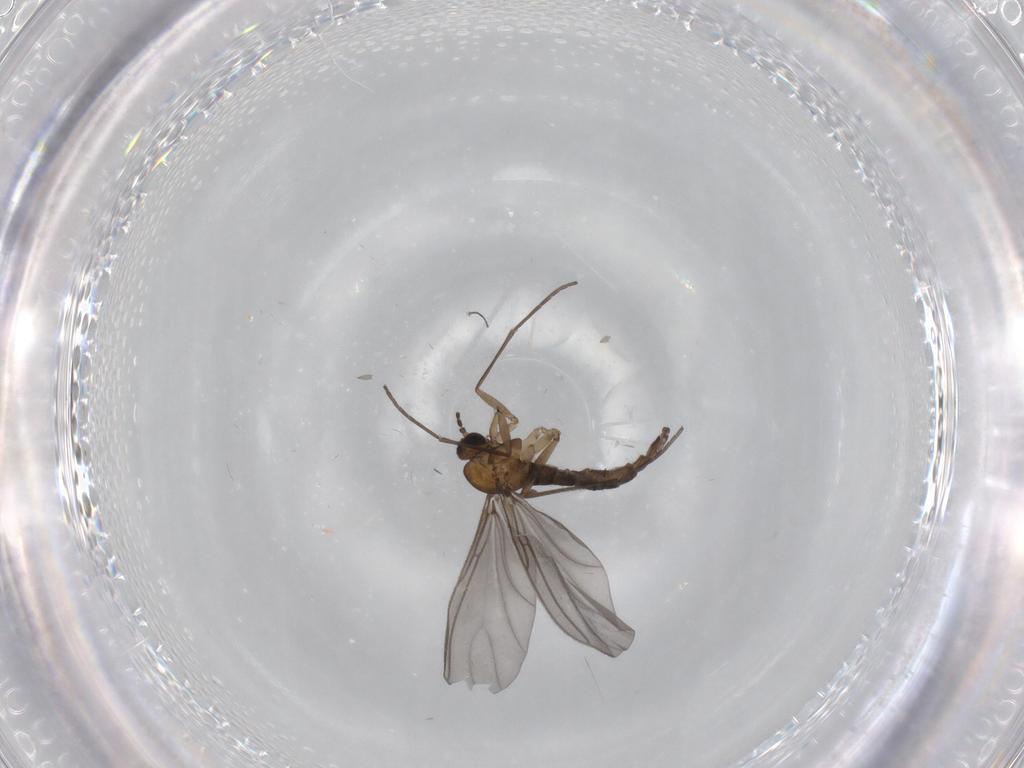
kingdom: Animalia
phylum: Arthropoda
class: Insecta
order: Diptera
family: Sciaridae
